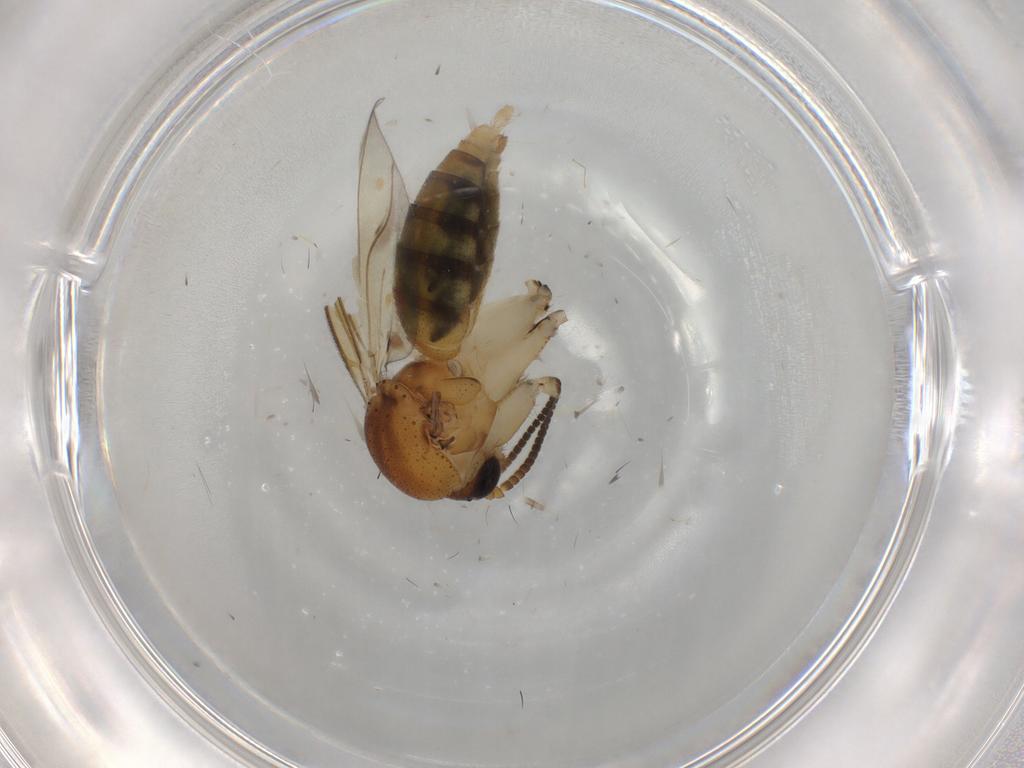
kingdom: Animalia
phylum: Arthropoda
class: Insecta
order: Diptera
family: Mycetophilidae
